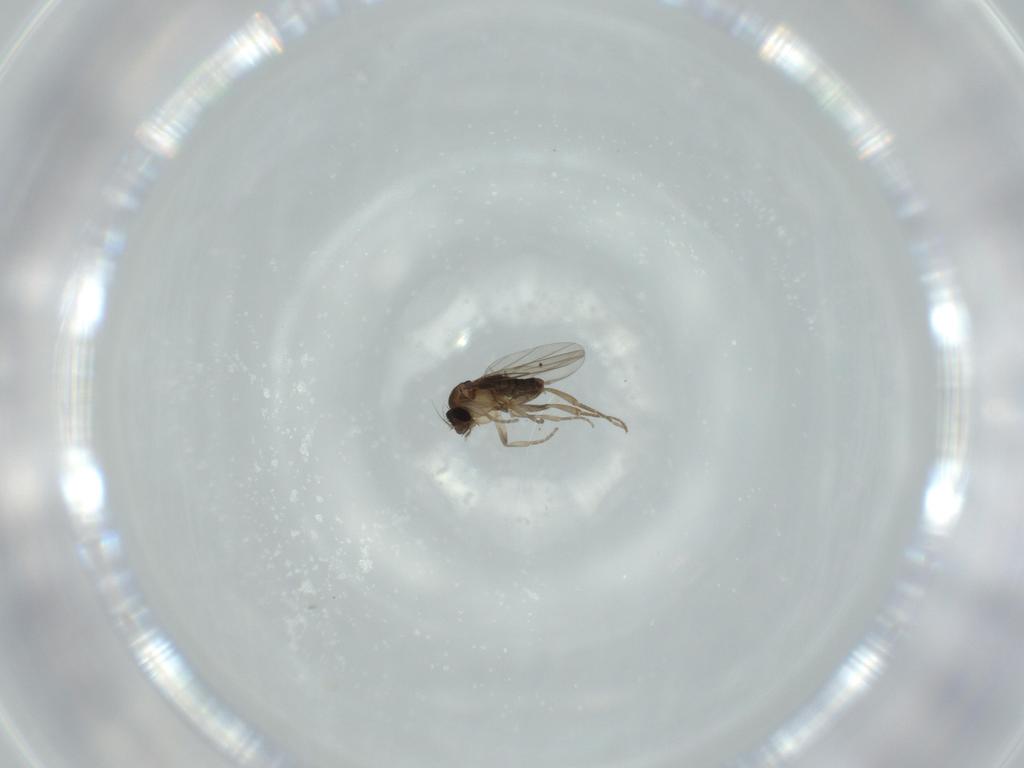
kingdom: Animalia
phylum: Arthropoda
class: Insecta
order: Diptera
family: Phoridae
